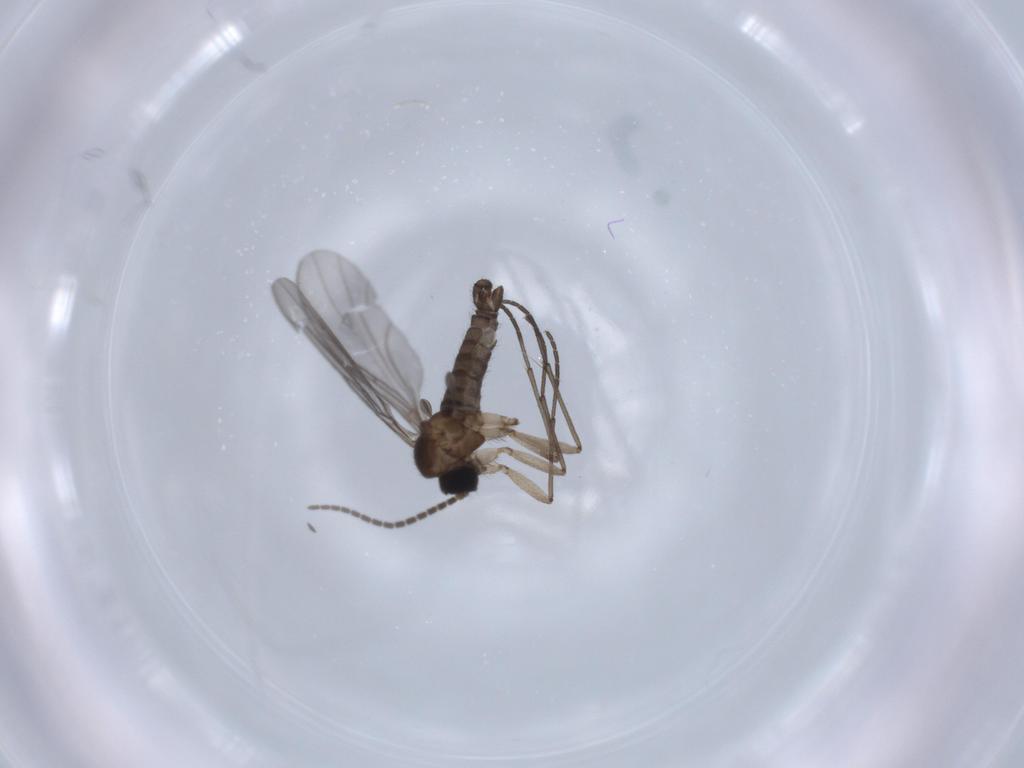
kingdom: Animalia
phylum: Arthropoda
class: Insecta
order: Diptera
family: Sciaridae
